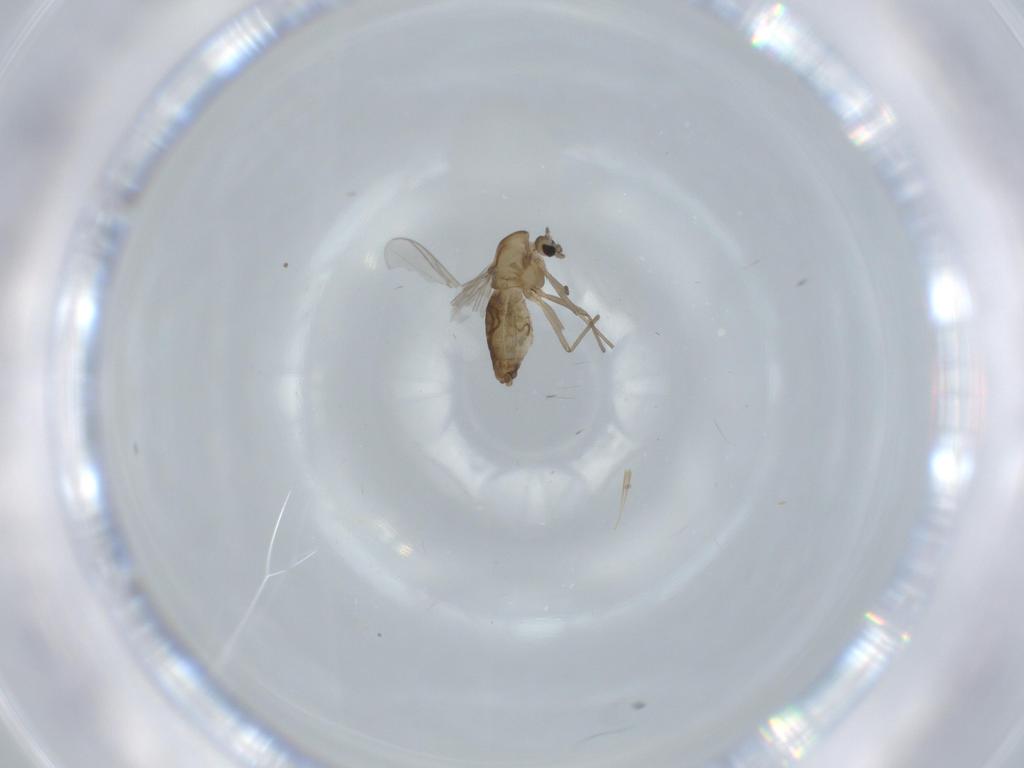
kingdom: Animalia
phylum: Arthropoda
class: Insecta
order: Diptera
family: Chironomidae
